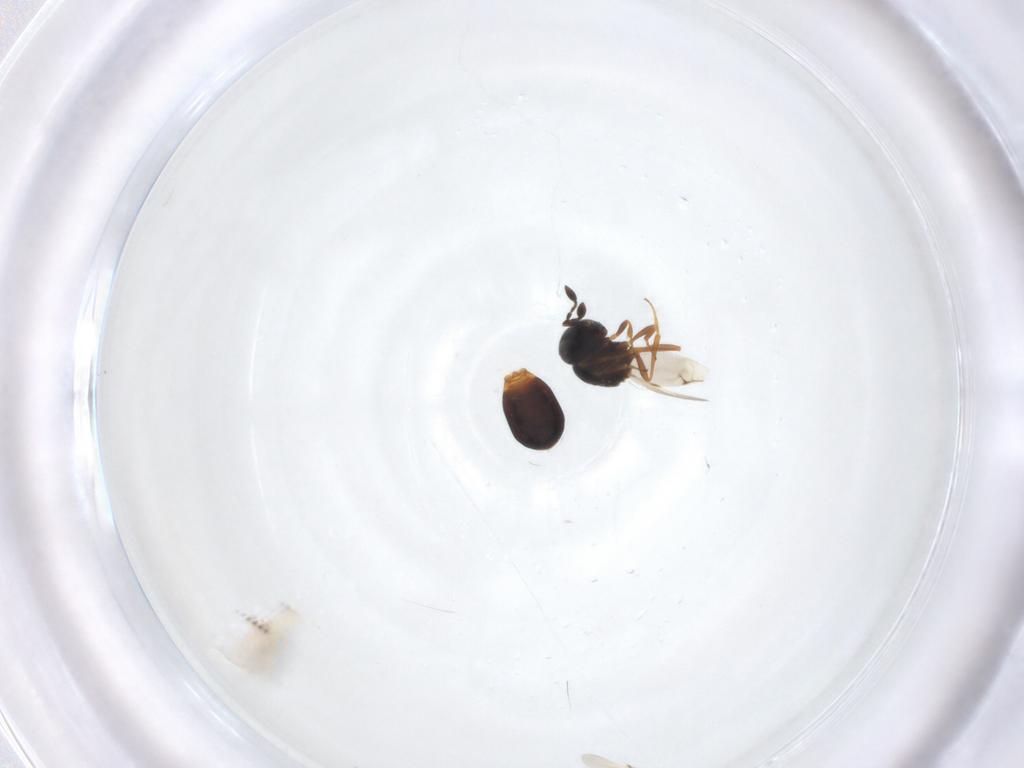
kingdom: Animalia
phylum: Arthropoda
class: Insecta
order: Hymenoptera
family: Scelionidae
